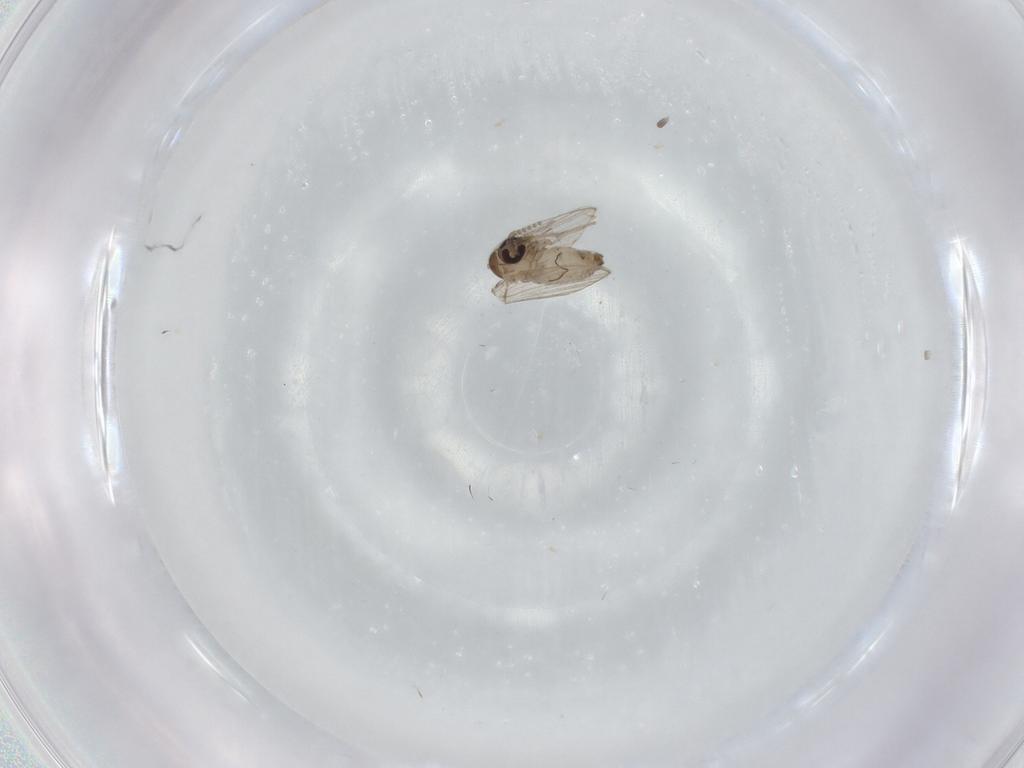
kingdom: Animalia
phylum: Arthropoda
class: Insecta
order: Diptera
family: Psychodidae
